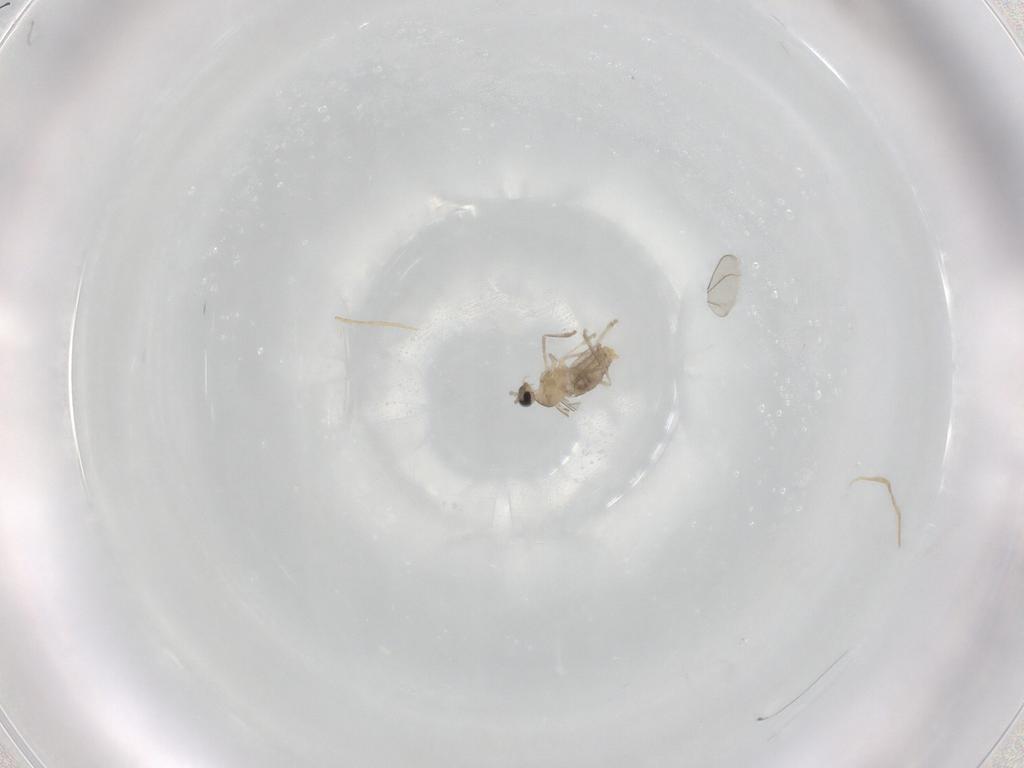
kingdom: Animalia
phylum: Arthropoda
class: Insecta
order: Diptera
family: Cecidomyiidae
